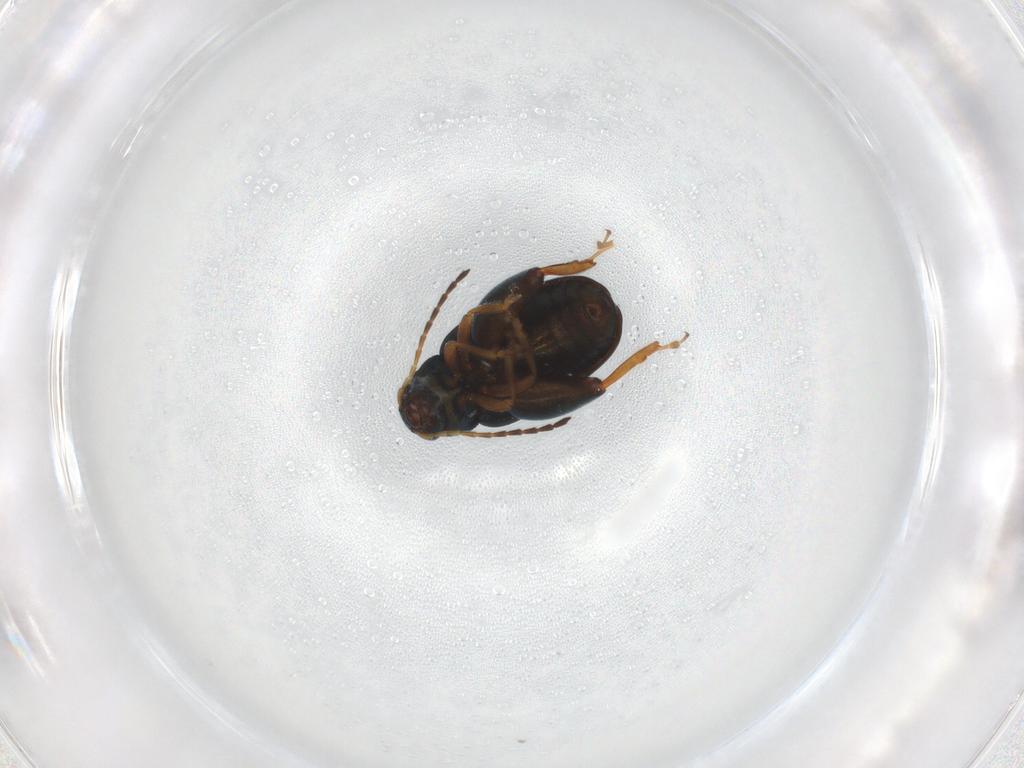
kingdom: Animalia
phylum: Arthropoda
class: Insecta
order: Coleoptera
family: Chrysomelidae
